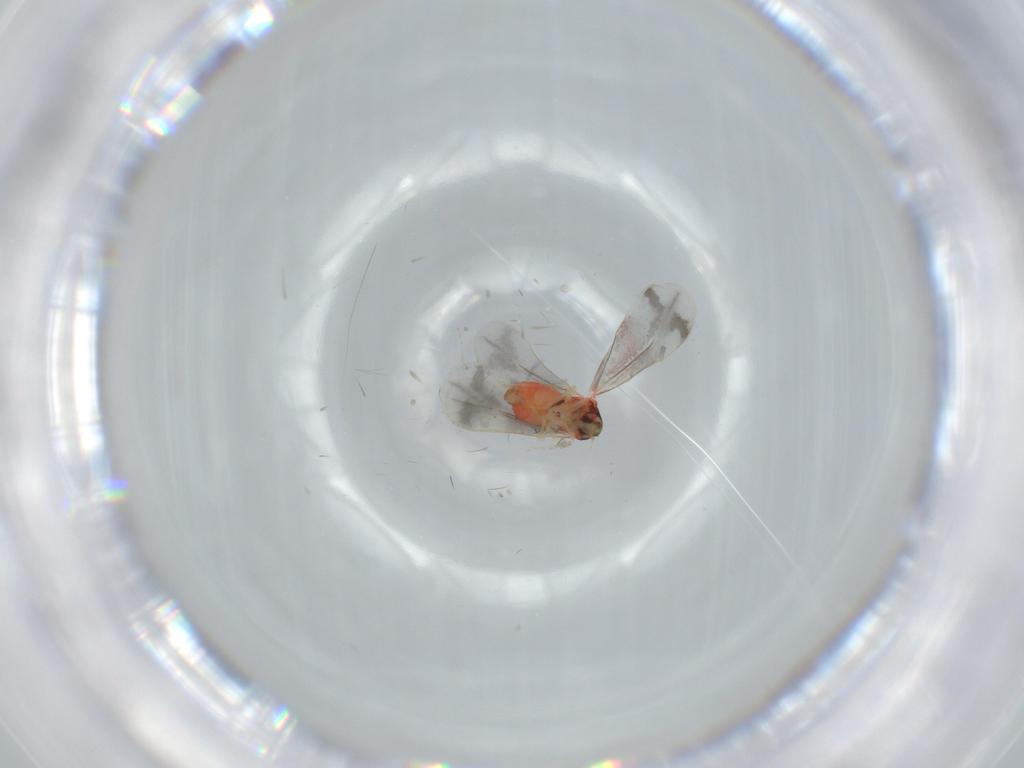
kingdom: Animalia
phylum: Arthropoda
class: Insecta
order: Hemiptera
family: Aleyrodidae
